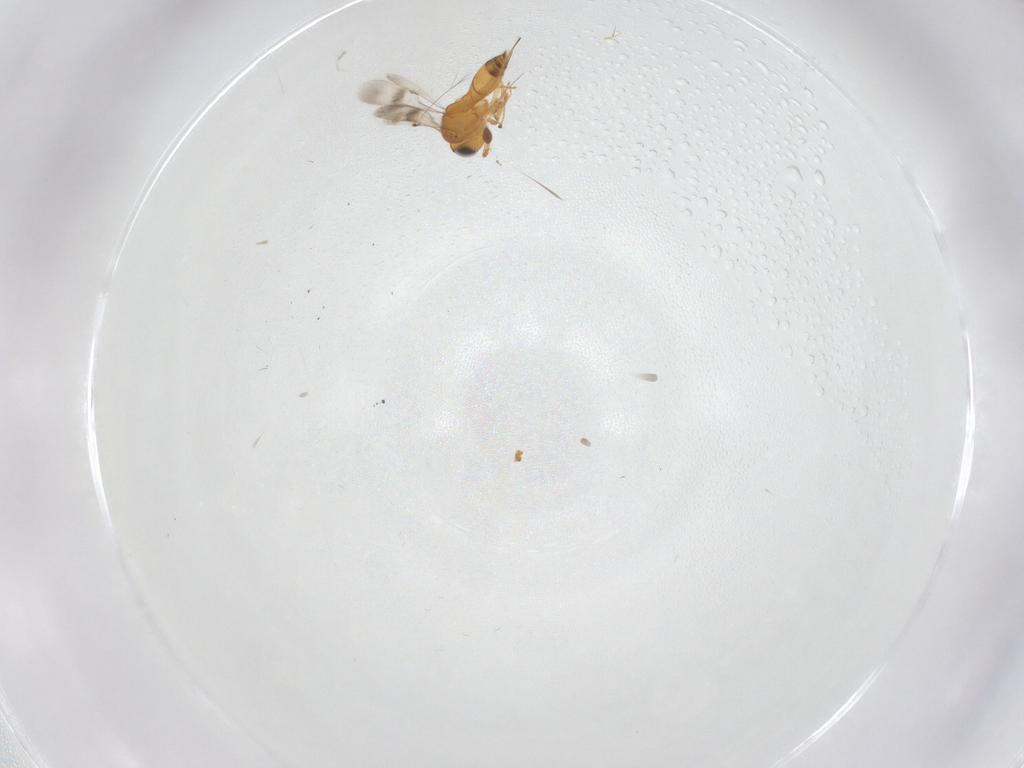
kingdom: Animalia
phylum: Arthropoda
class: Insecta
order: Hymenoptera
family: Scelionidae
